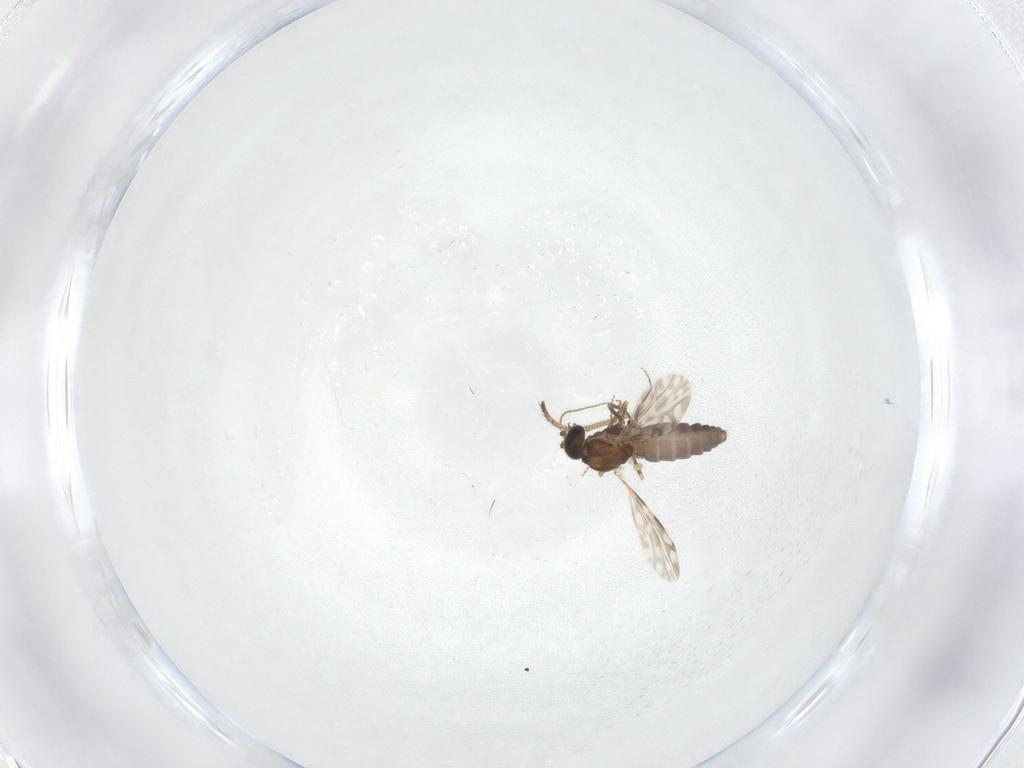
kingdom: Animalia
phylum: Arthropoda
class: Insecta
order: Diptera
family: Ceratopogonidae
